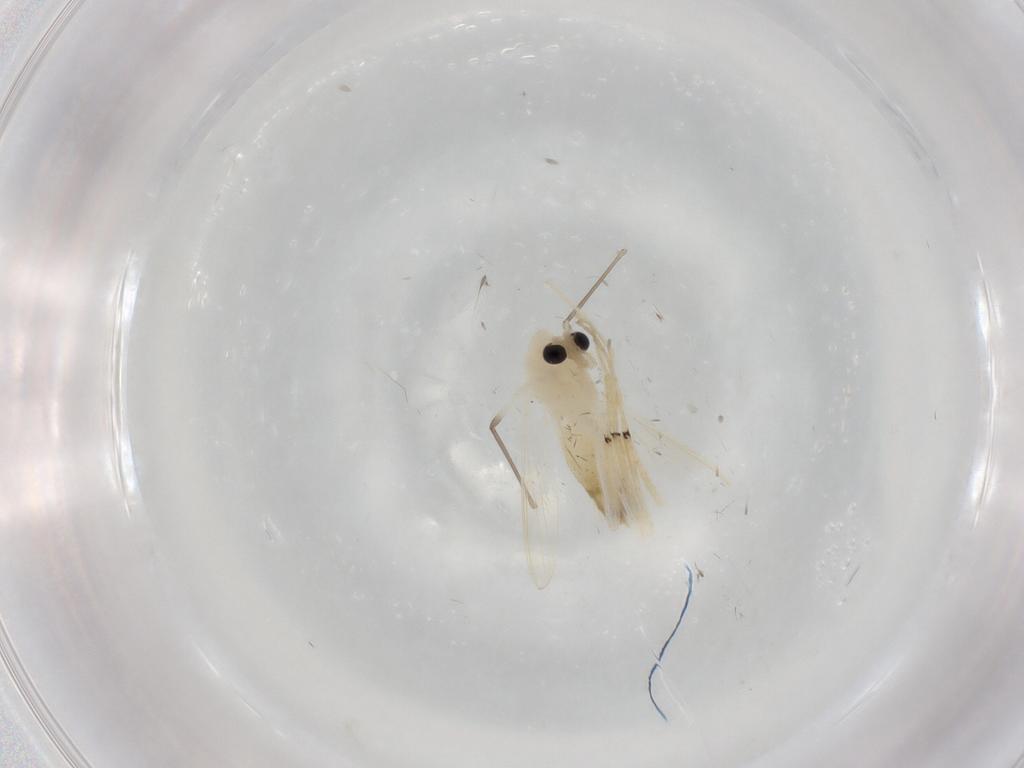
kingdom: Animalia
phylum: Arthropoda
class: Insecta
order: Diptera
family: Chironomidae
